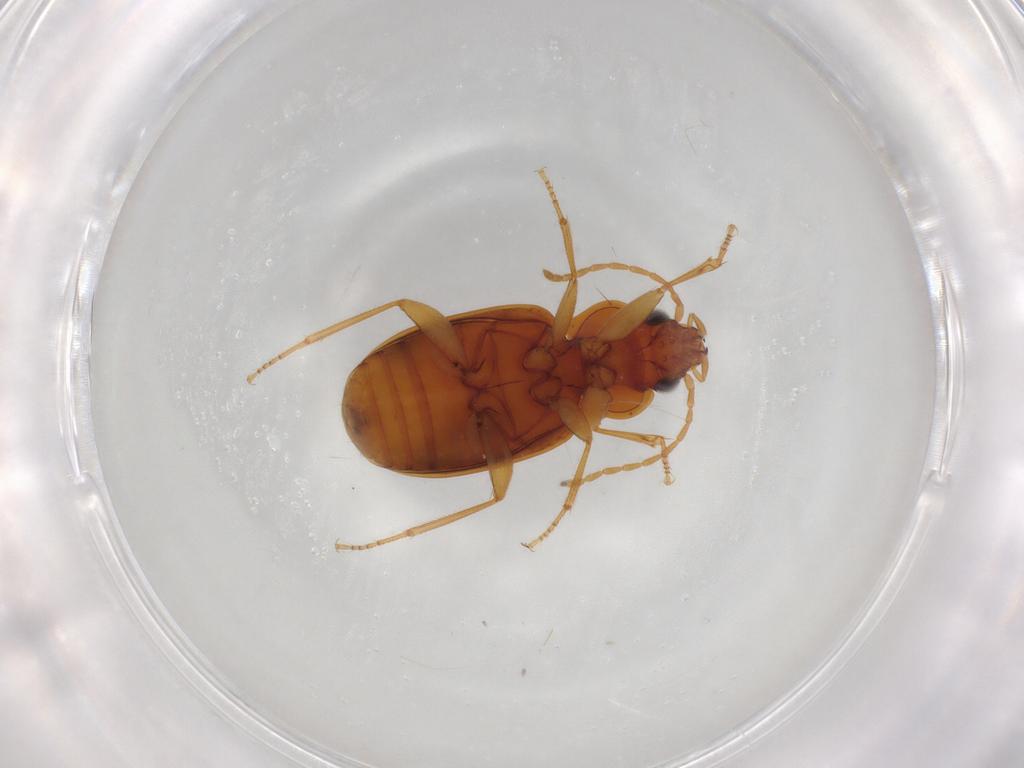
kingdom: Animalia
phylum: Arthropoda
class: Insecta
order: Coleoptera
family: Carabidae
